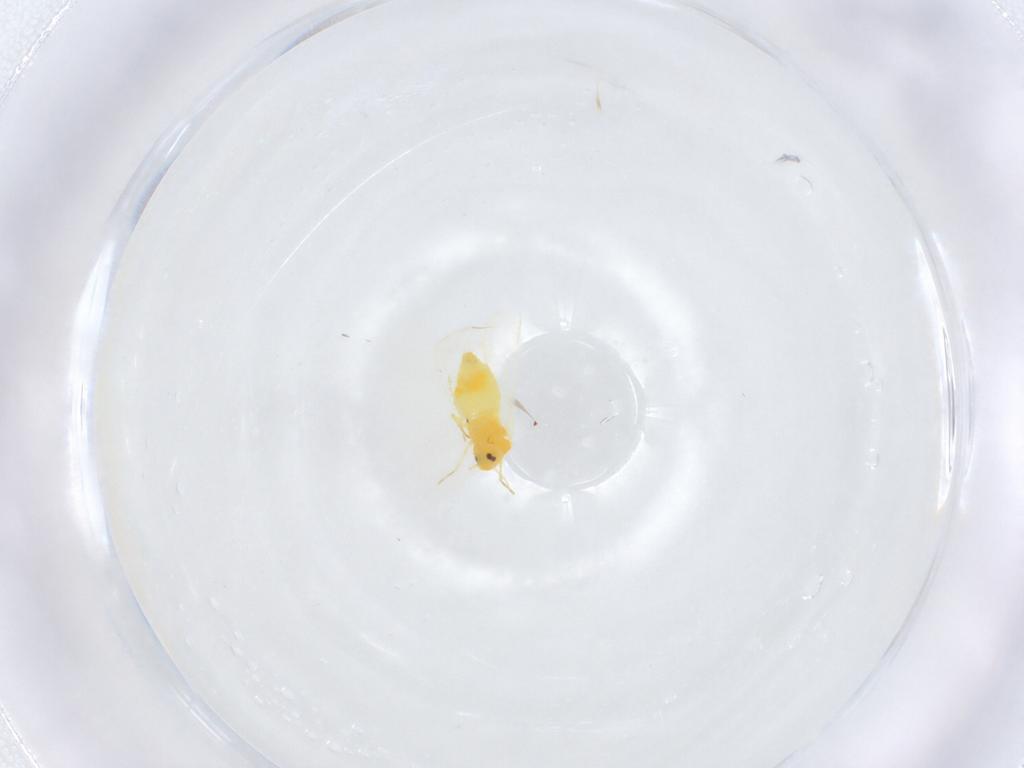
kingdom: Animalia
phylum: Arthropoda
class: Insecta
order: Hemiptera
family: Aleyrodidae
